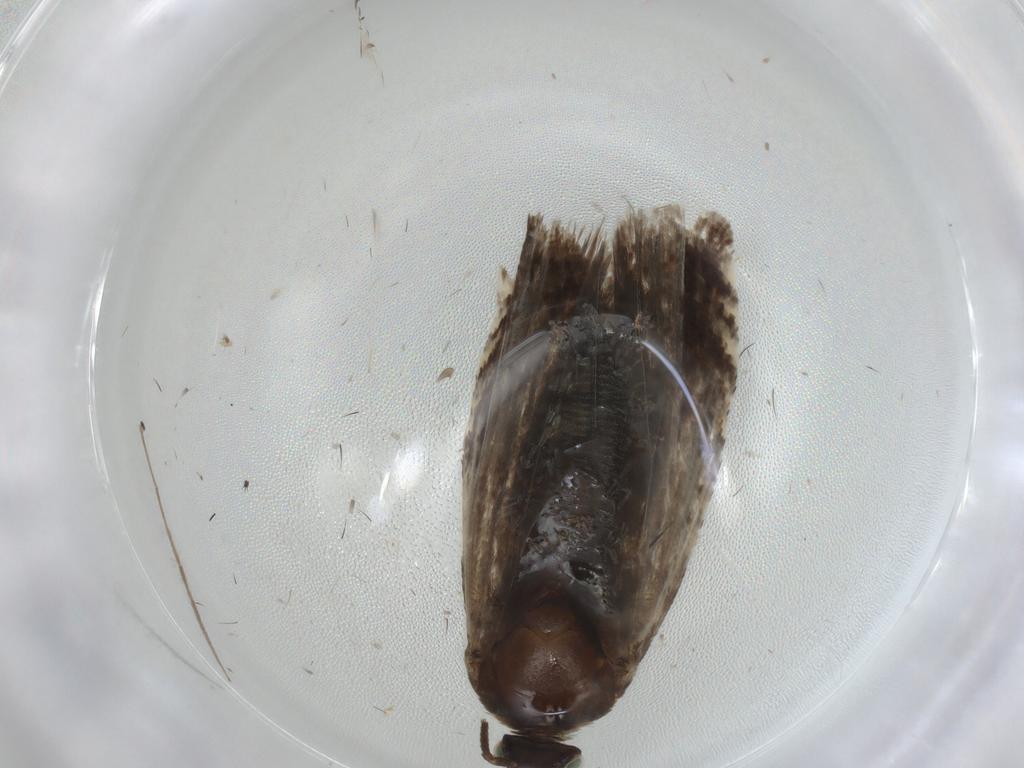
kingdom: Animalia
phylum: Arthropoda
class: Insecta
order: Lepidoptera
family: Tortricidae
